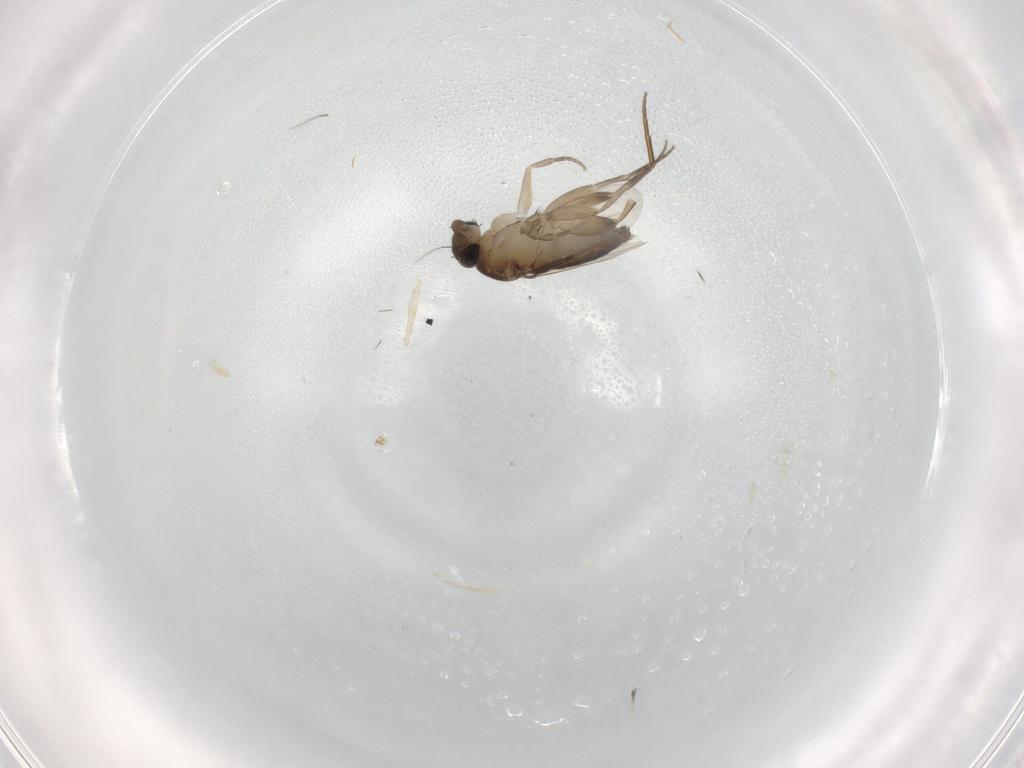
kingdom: Animalia
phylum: Arthropoda
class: Insecta
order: Diptera
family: Phoridae
